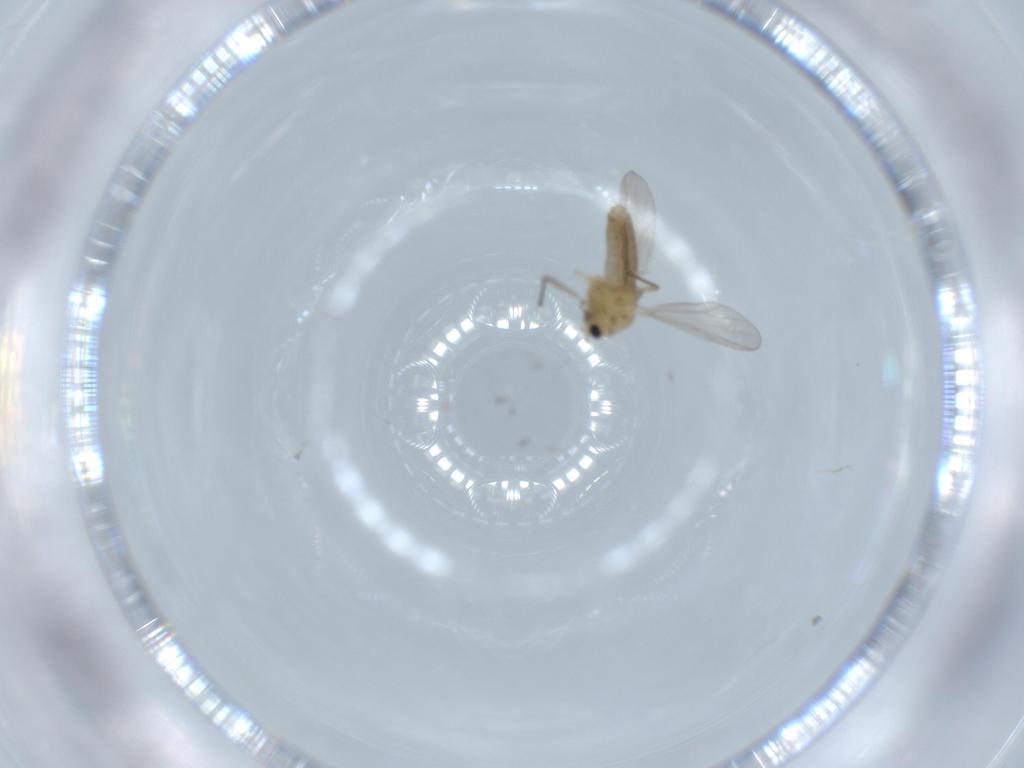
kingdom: Animalia
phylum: Arthropoda
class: Insecta
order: Diptera
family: Chironomidae
